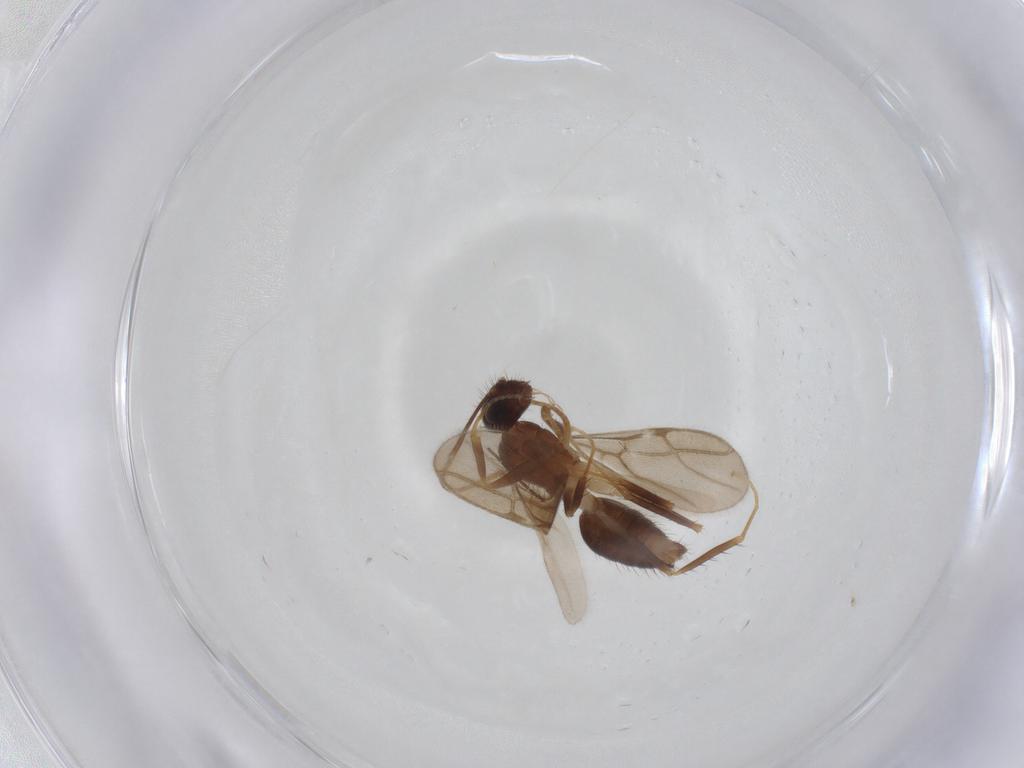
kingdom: Animalia
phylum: Arthropoda
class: Insecta
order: Hymenoptera
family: Formicidae
